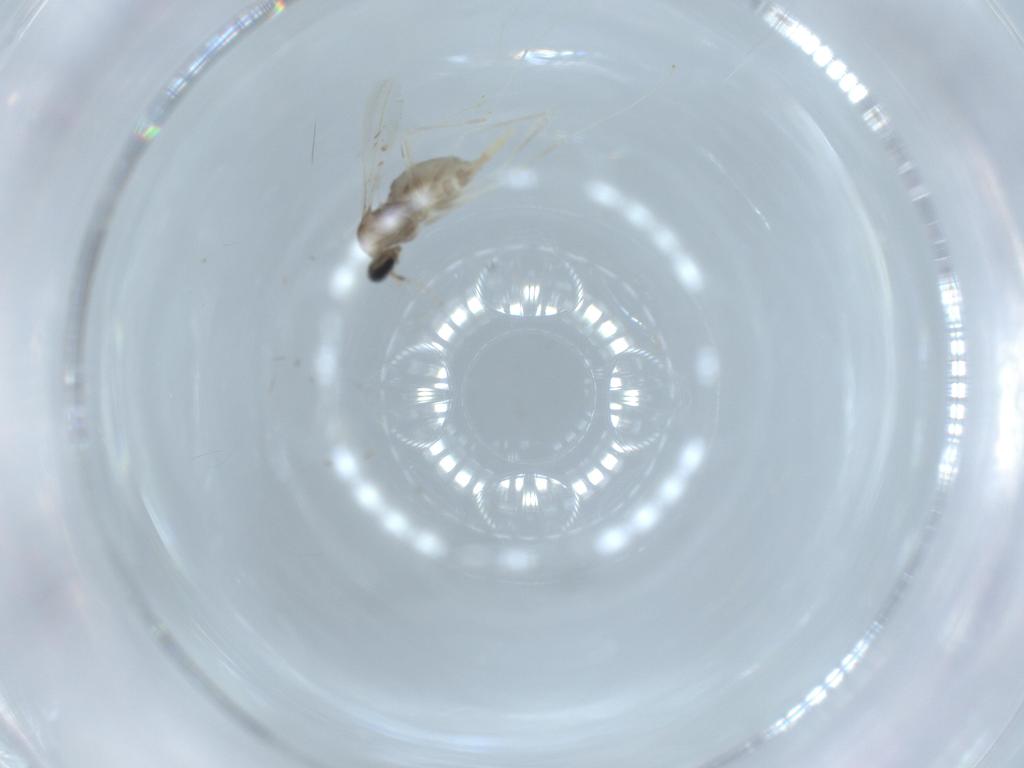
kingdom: Animalia
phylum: Arthropoda
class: Insecta
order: Diptera
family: Cecidomyiidae
